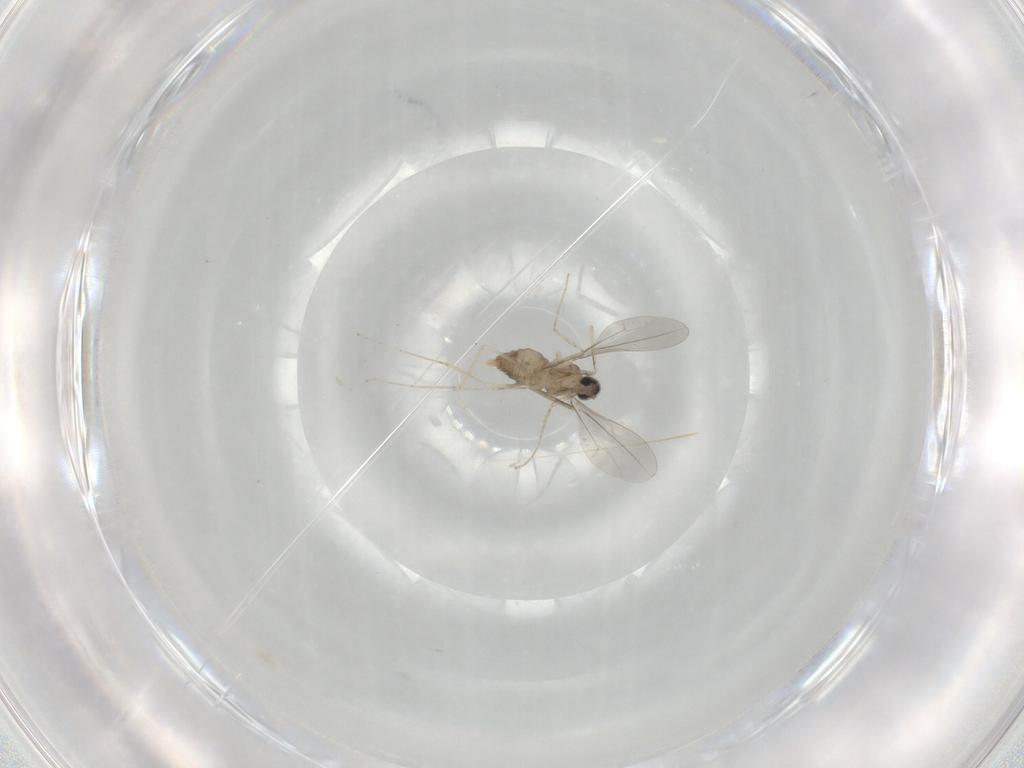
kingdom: Animalia
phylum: Arthropoda
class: Insecta
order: Diptera
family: Cecidomyiidae
